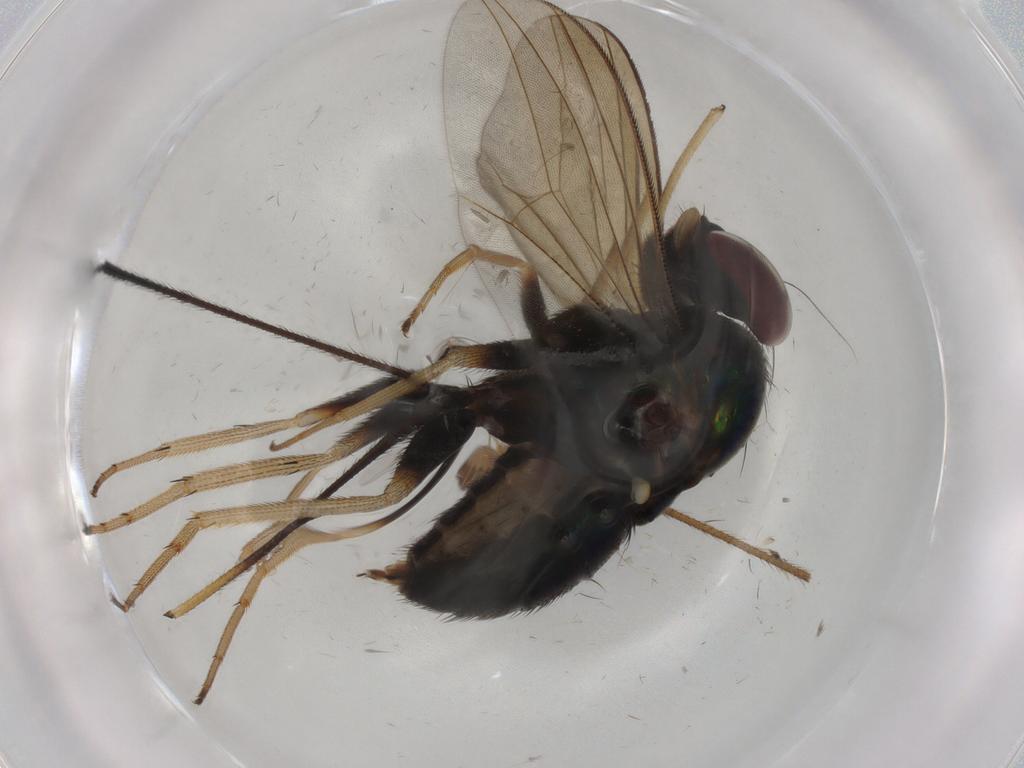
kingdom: Animalia
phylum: Arthropoda
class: Insecta
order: Diptera
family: Dolichopodidae
